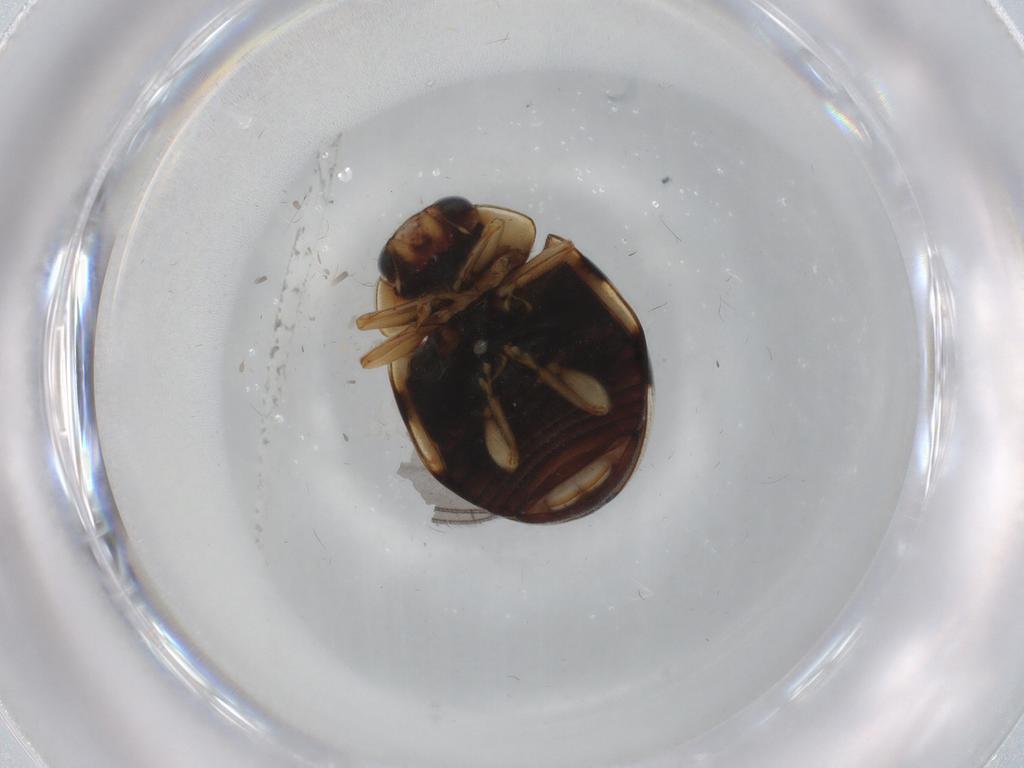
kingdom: Animalia
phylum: Arthropoda
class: Insecta
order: Coleoptera
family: Coccinellidae
